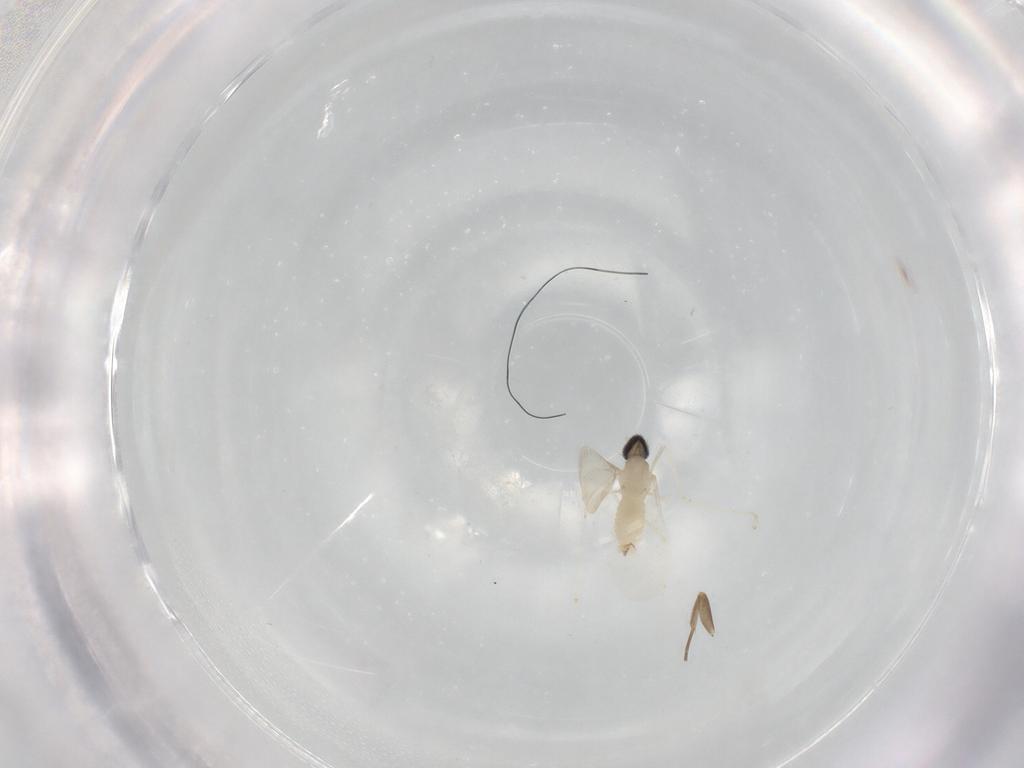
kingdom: Animalia
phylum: Arthropoda
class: Insecta
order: Diptera
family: Cecidomyiidae
